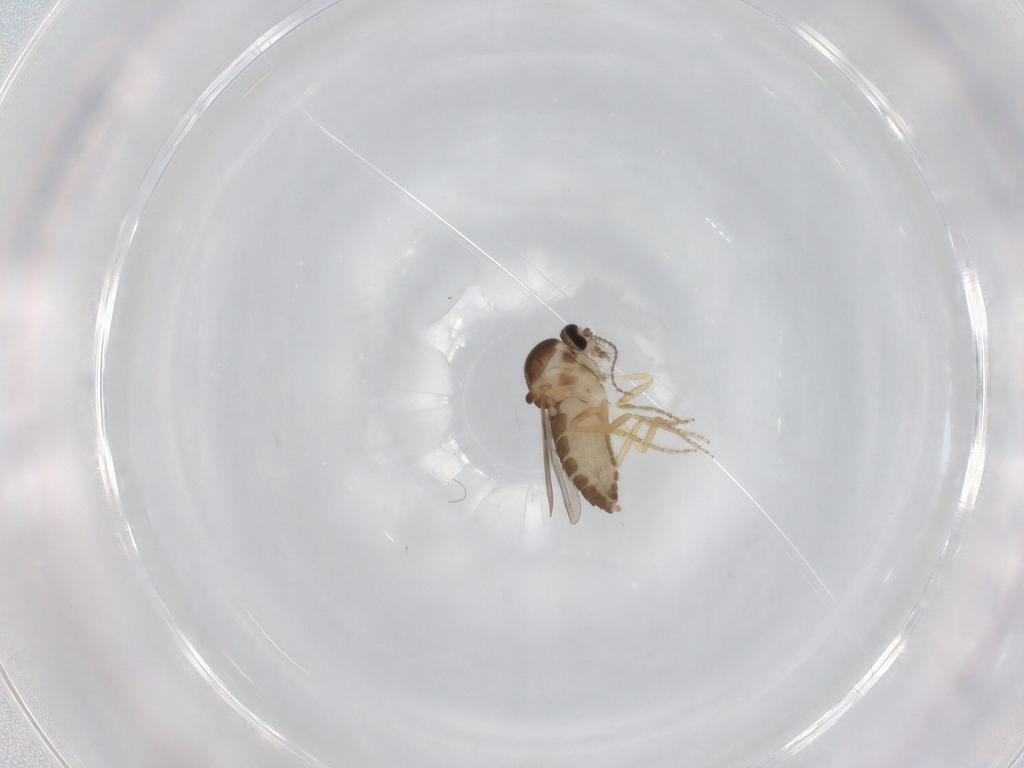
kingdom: Animalia
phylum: Arthropoda
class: Insecta
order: Diptera
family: Ceratopogonidae
